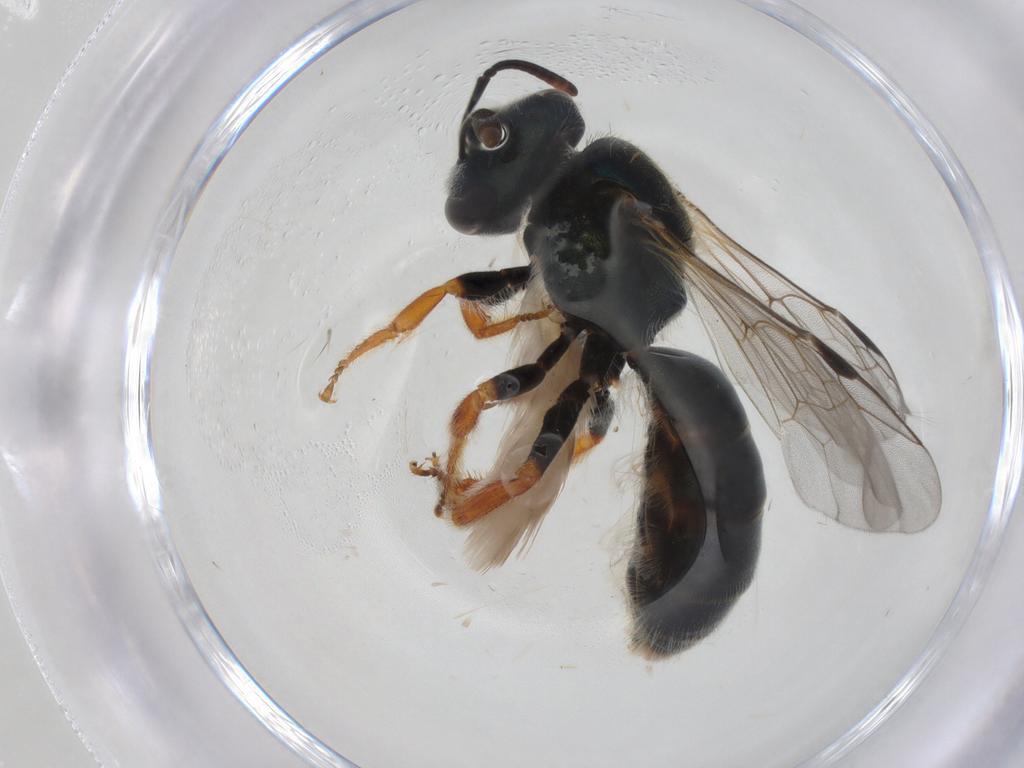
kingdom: Animalia
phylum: Arthropoda
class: Insecta
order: Hymenoptera
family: Halictidae
